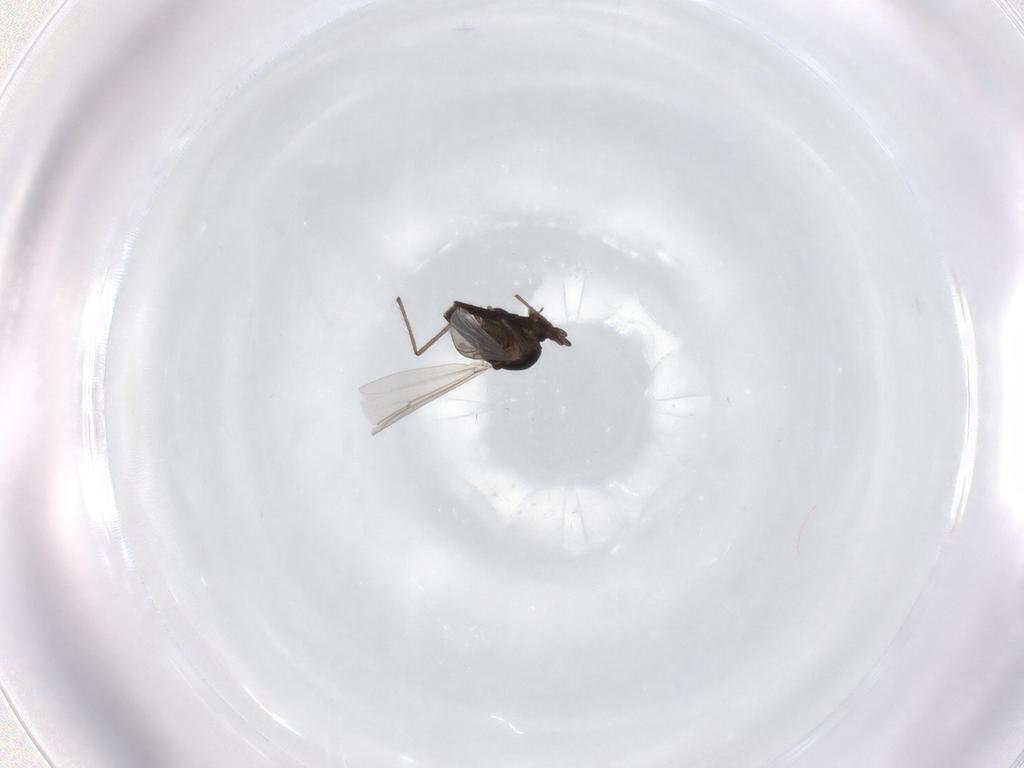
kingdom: Animalia
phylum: Arthropoda
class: Insecta
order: Diptera
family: Chironomidae
